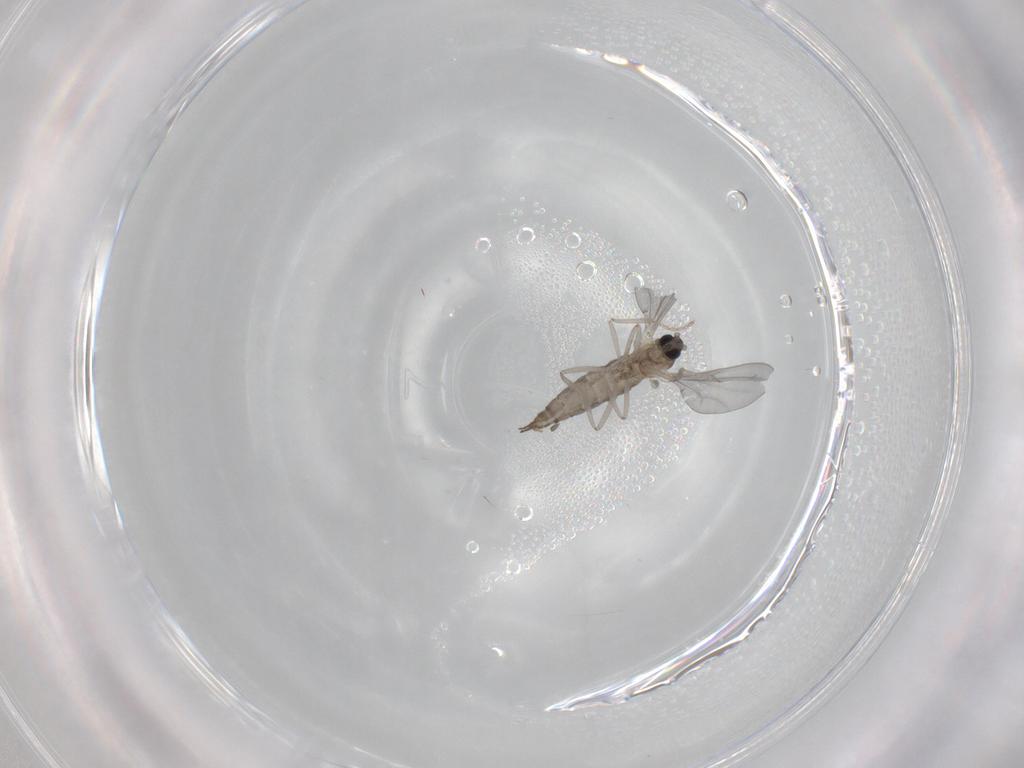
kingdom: Animalia
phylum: Arthropoda
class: Insecta
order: Diptera
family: Cecidomyiidae
